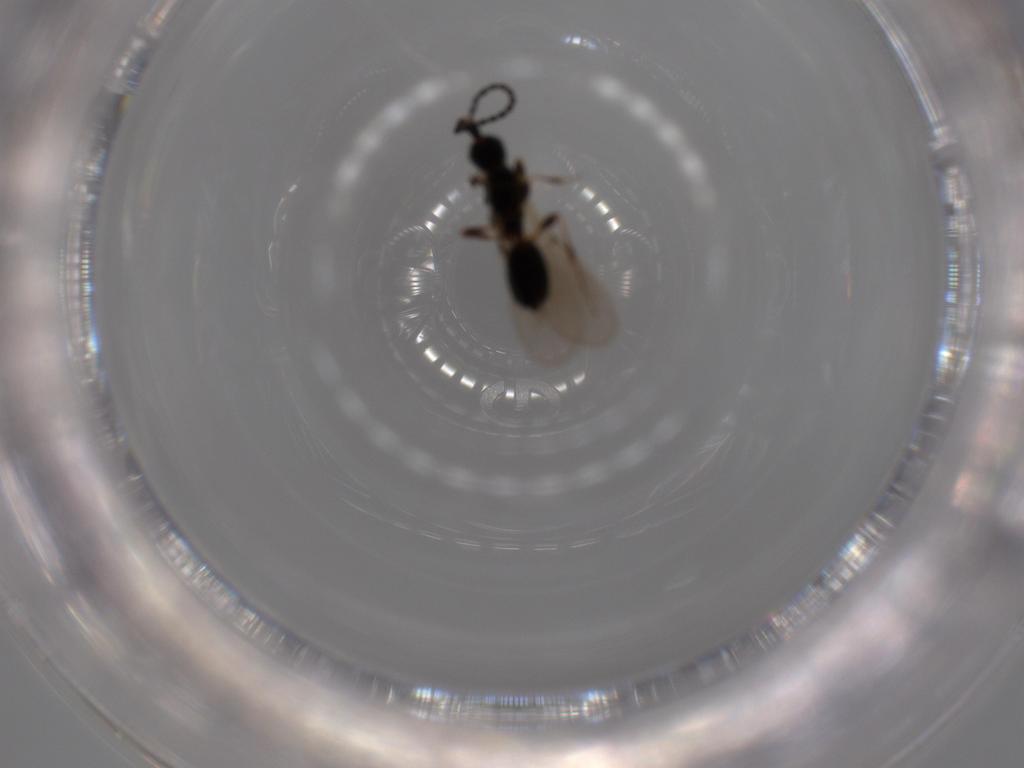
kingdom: Animalia
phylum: Arthropoda
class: Insecta
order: Hymenoptera
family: Diapriidae
